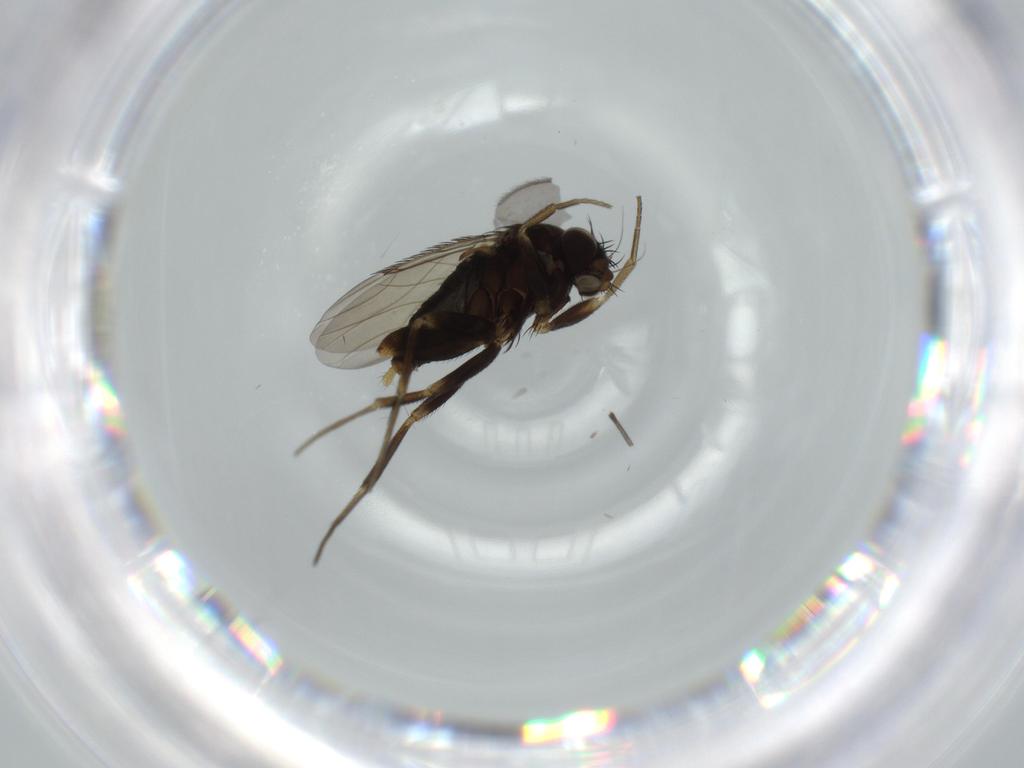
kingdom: Animalia
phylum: Arthropoda
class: Insecta
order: Diptera
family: Phoridae
